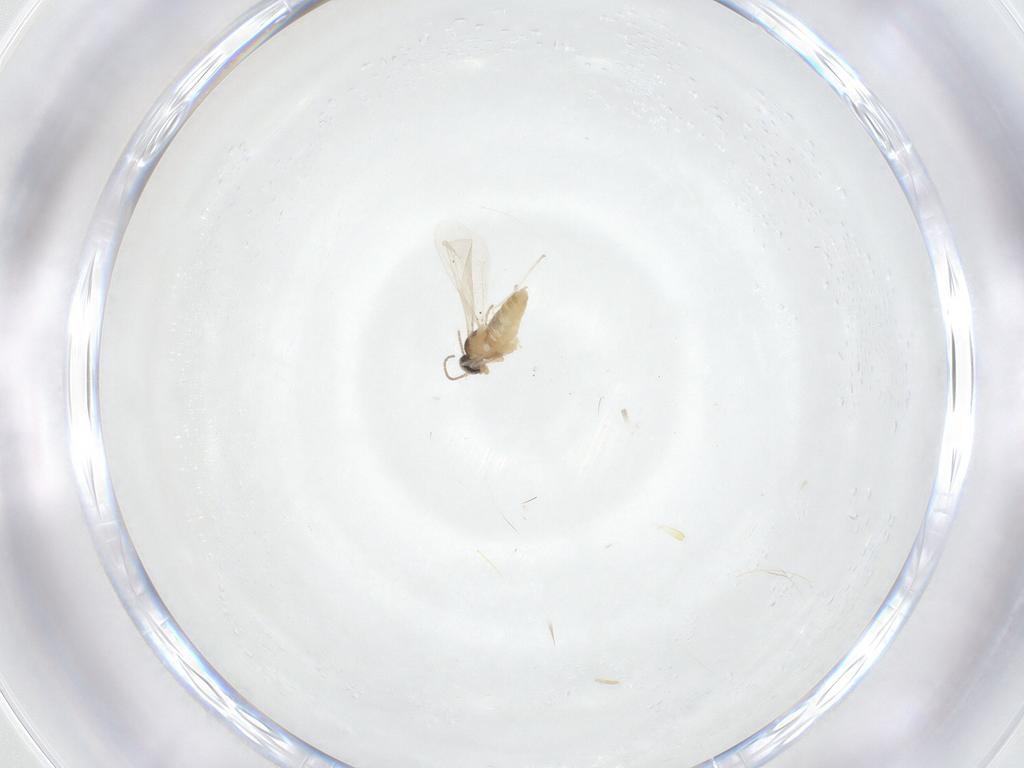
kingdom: Animalia
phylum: Arthropoda
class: Insecta
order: Diptera
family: Cecidomyiidae
